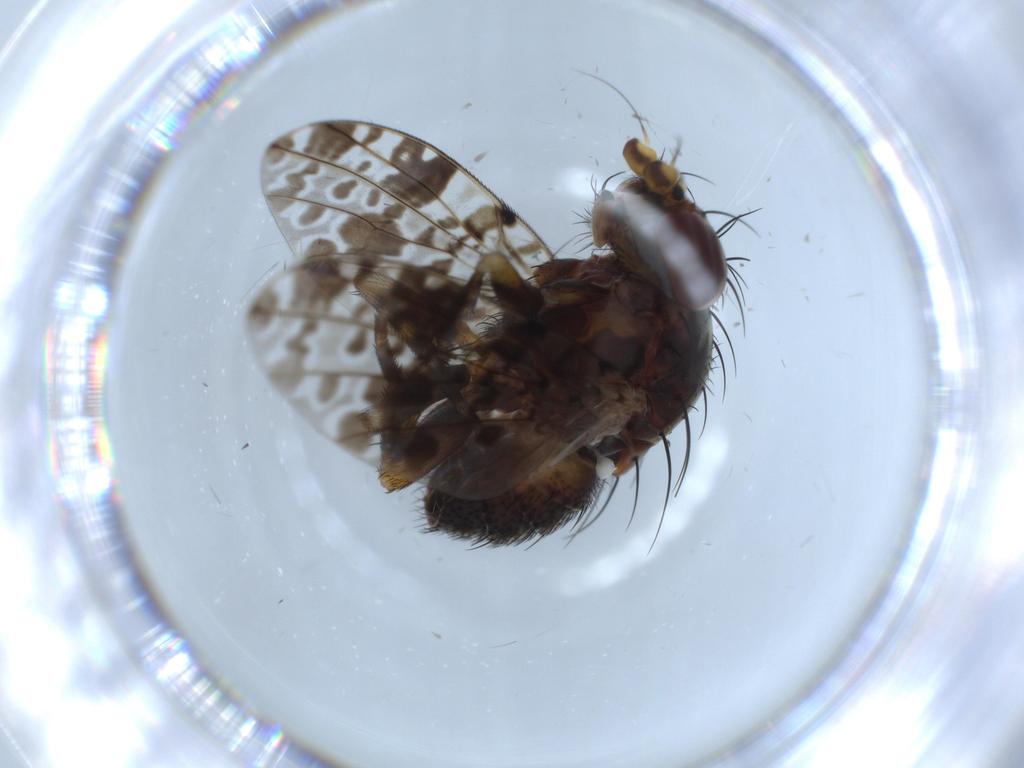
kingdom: Animalia
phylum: Arthropoda
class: Insecta
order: Diptera
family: Odiniidae
